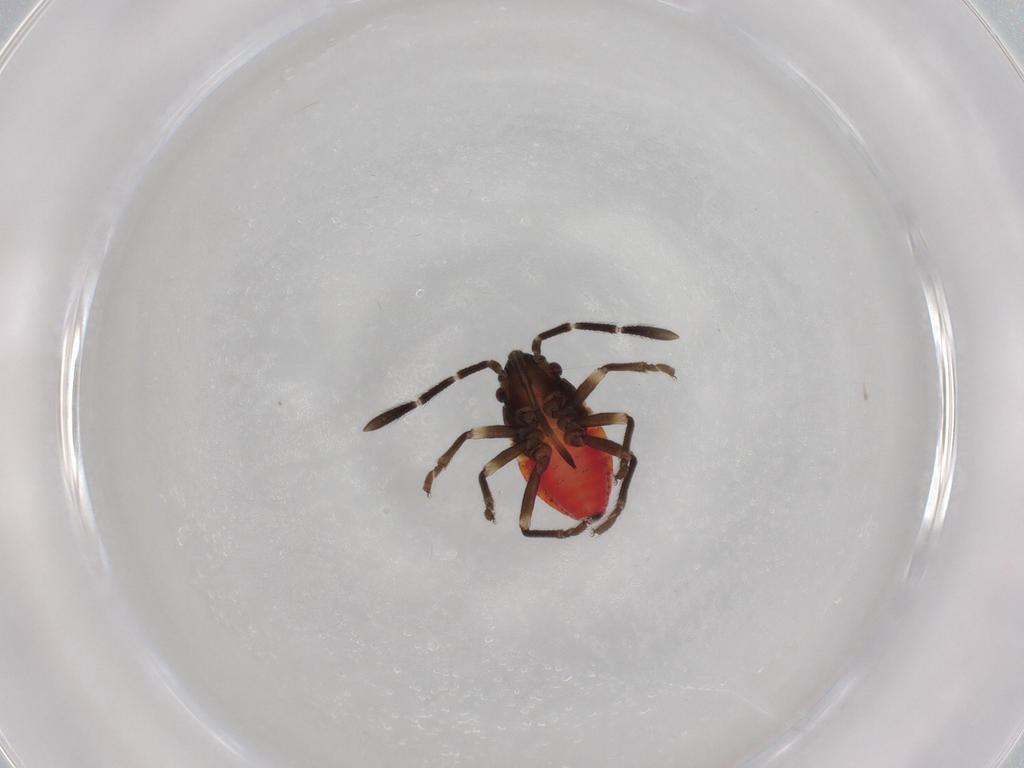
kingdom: Animalia
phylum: Arthropoda
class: Insecta
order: Hemiptera
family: Lygaeidae
